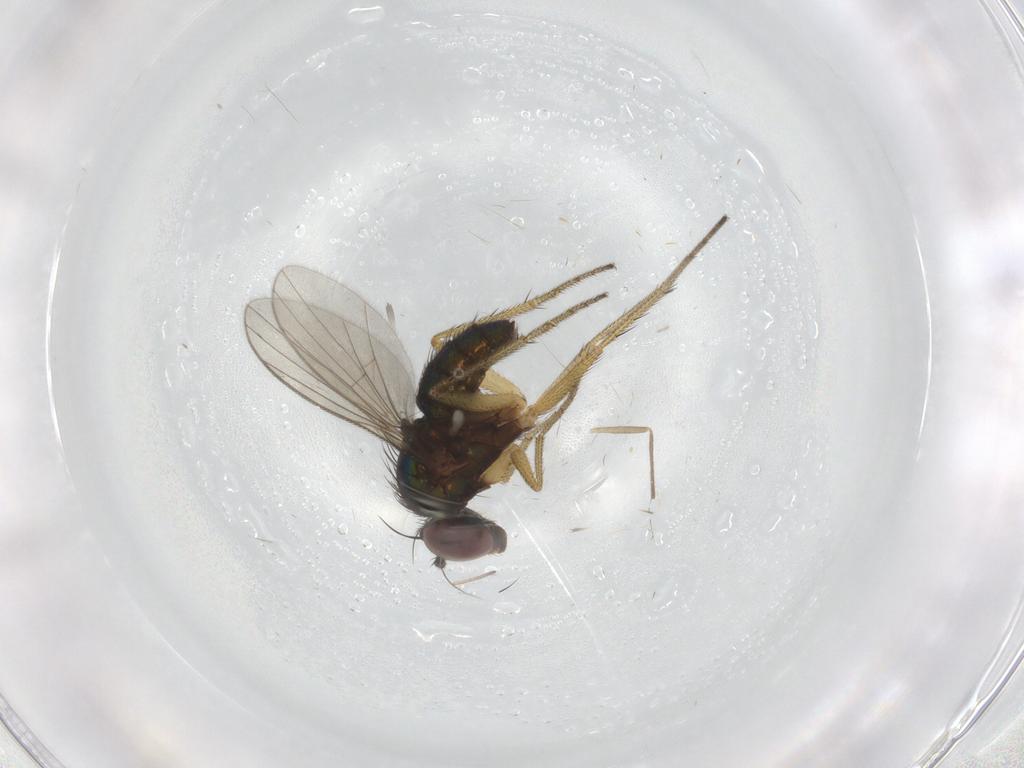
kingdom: Animalia
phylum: Arthropoda
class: Insecta
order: Diptera
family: Dolichopodidae
